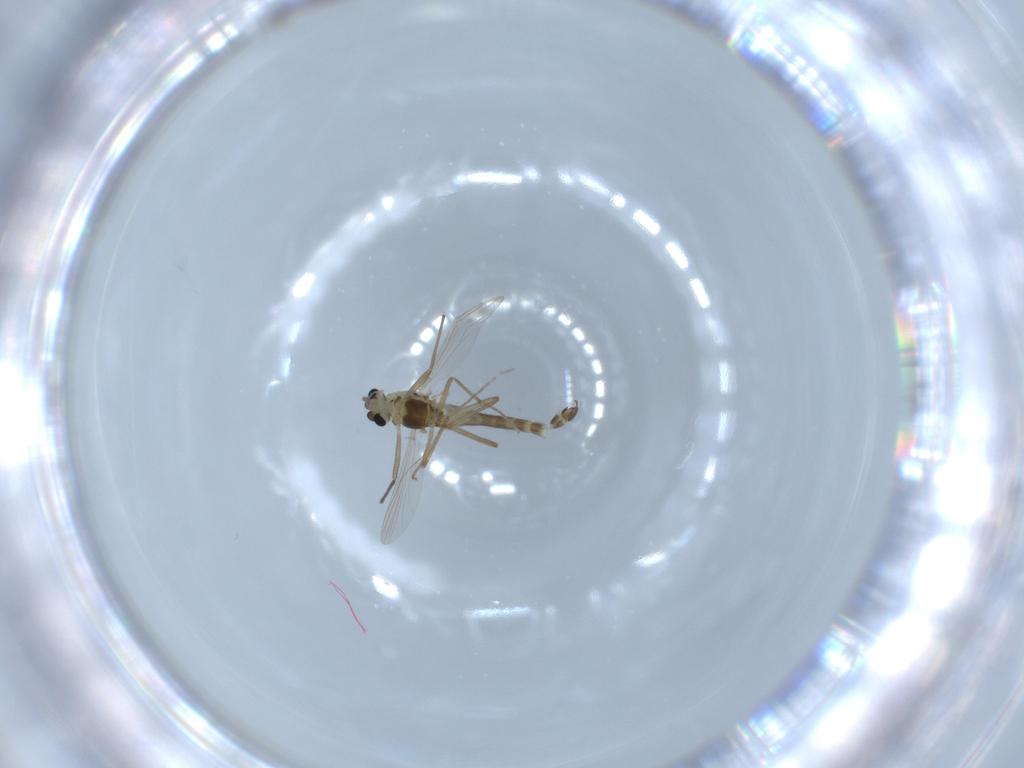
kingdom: Animalia
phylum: Arthropoda
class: Insecta
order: Diptera
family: Chironomidae
